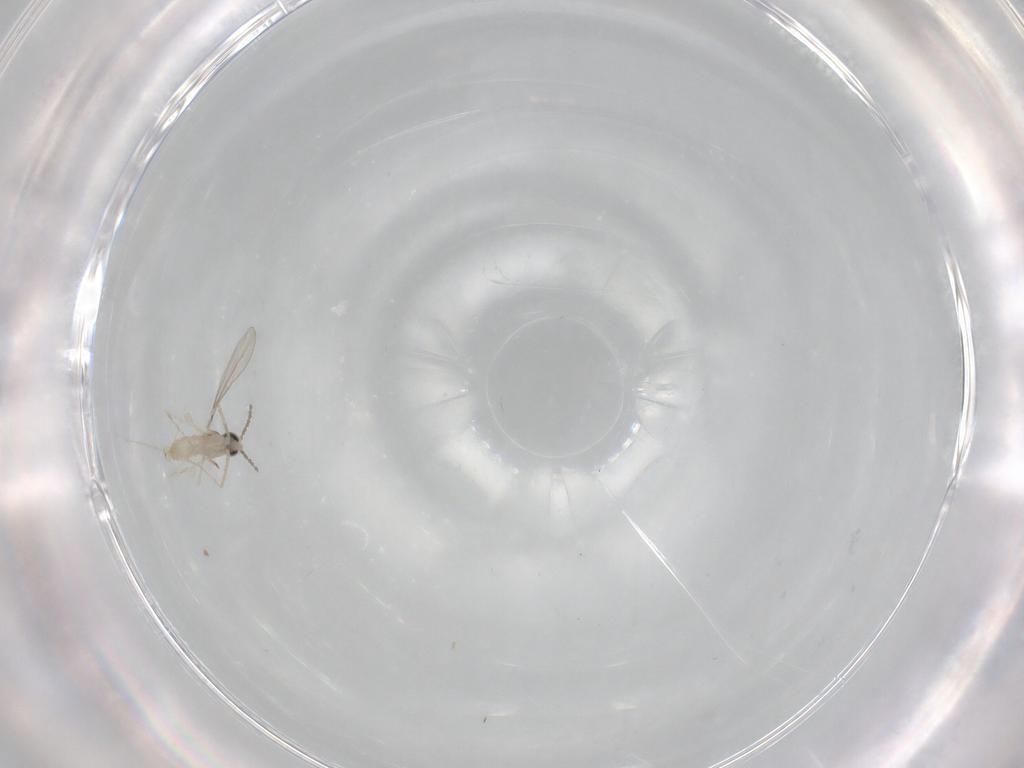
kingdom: Animalia
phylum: Arthropoda
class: Insecta
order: Diptera
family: Cecidomyiidae
